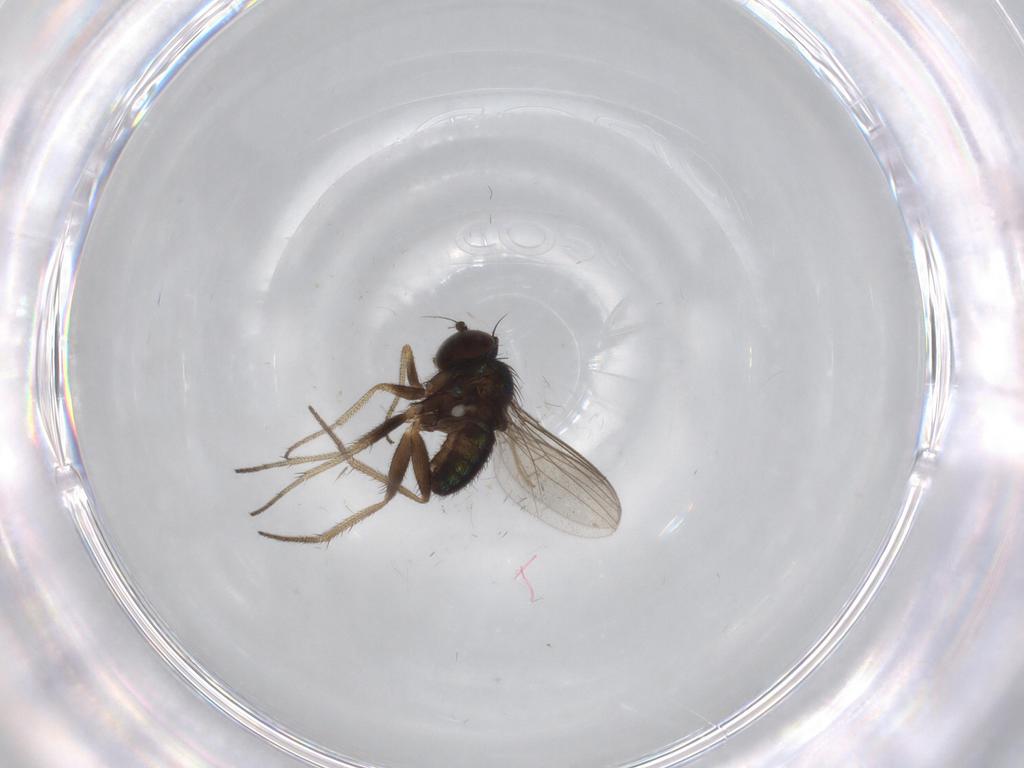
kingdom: Animalia
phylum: Arthropoda
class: Insecta
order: Diptera
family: Dolichopodidae
